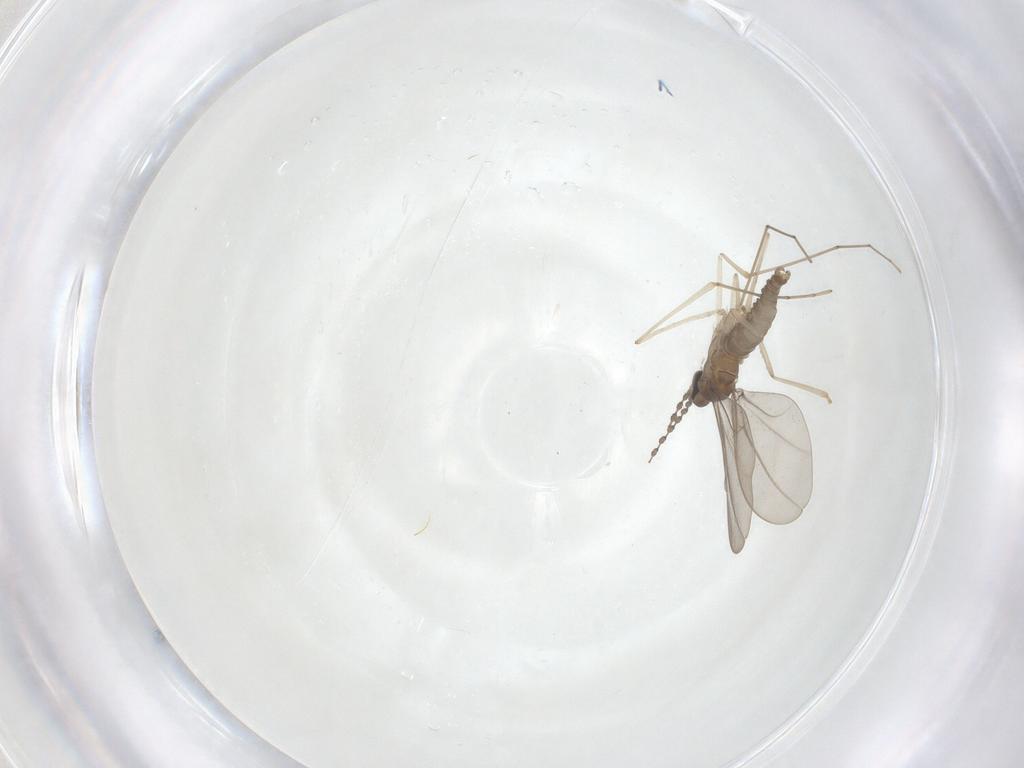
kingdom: Animalia
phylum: Arthropoda
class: Insecta
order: Diptera
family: Cecidomyiidae
